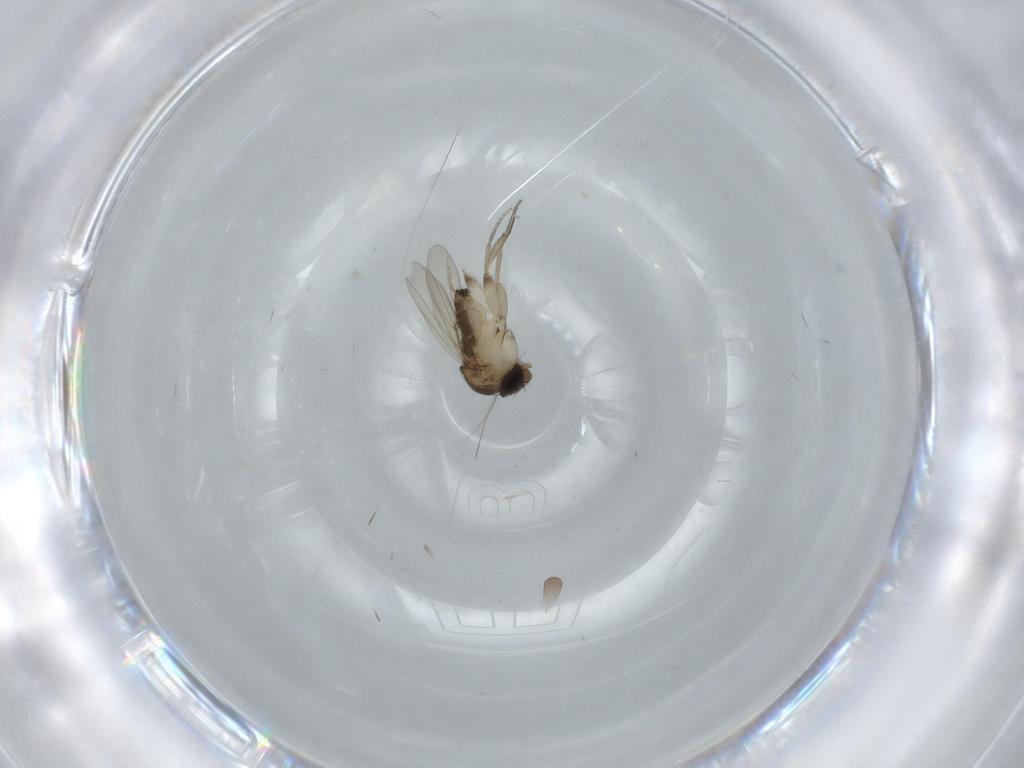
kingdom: Animalia
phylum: Arthropoda
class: Insecta
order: Diptera
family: Phoridae
